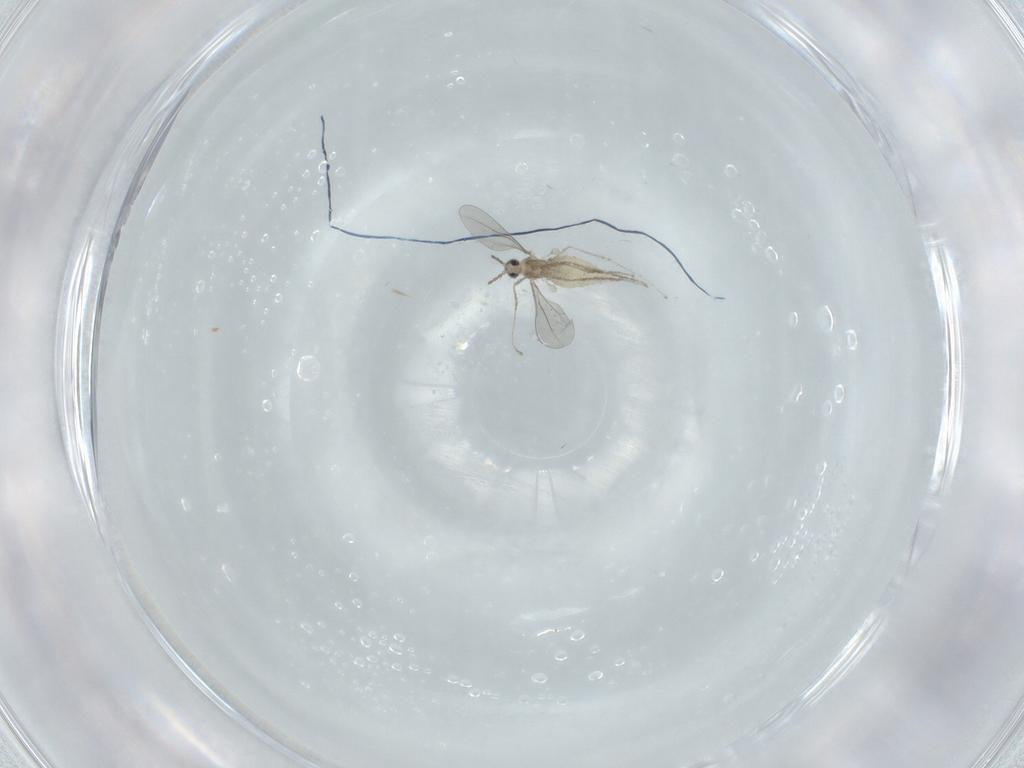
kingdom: Animalia
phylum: Arthropoda
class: Insecta
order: Diptera
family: Cecidomyiidae
